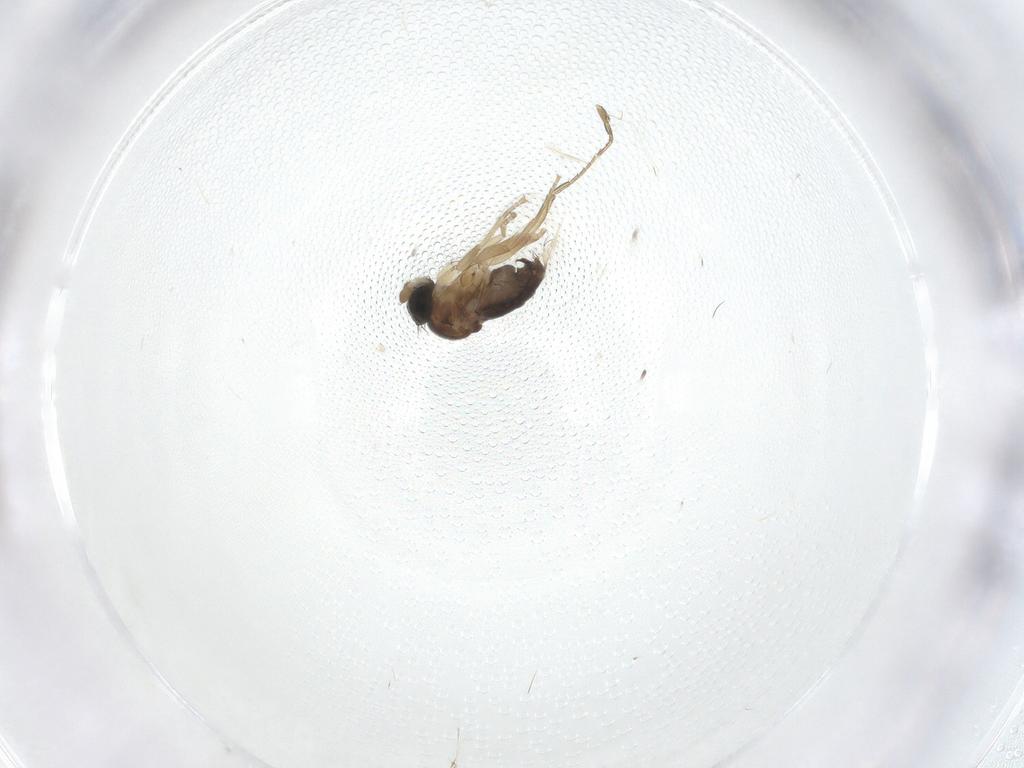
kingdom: Animalia
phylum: Arthropoda
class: Insecta
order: Diptera
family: Phoridae
